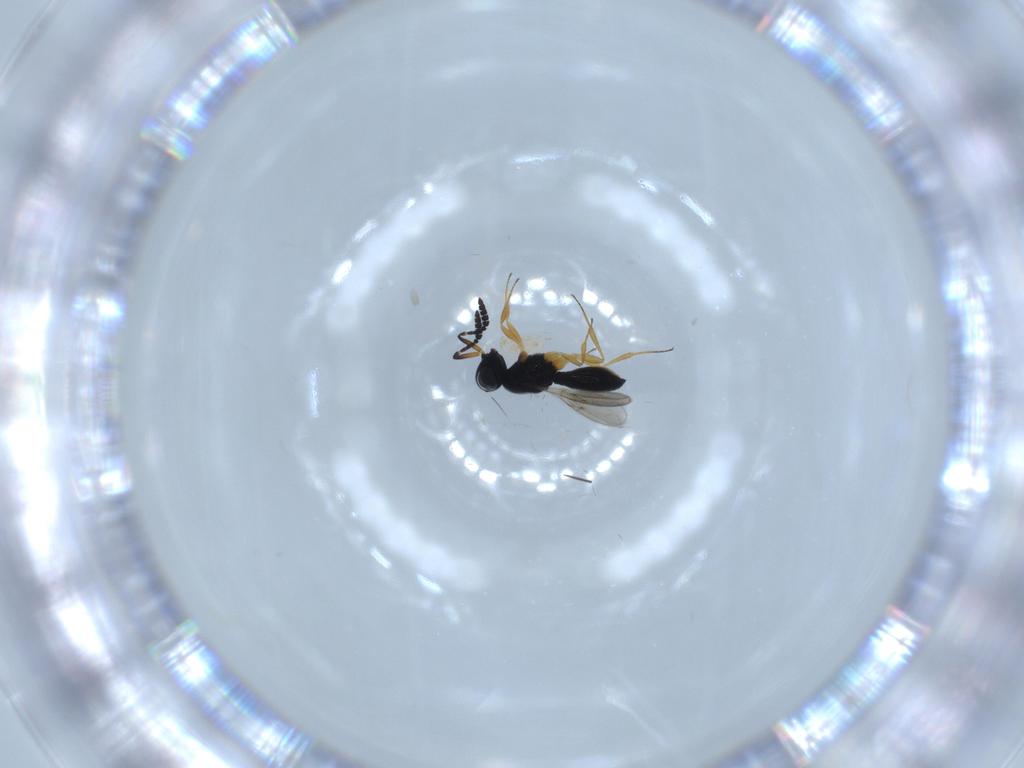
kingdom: Animalia
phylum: Arthropoda
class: Insecta
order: Hymenoptera
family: Scelionidae
